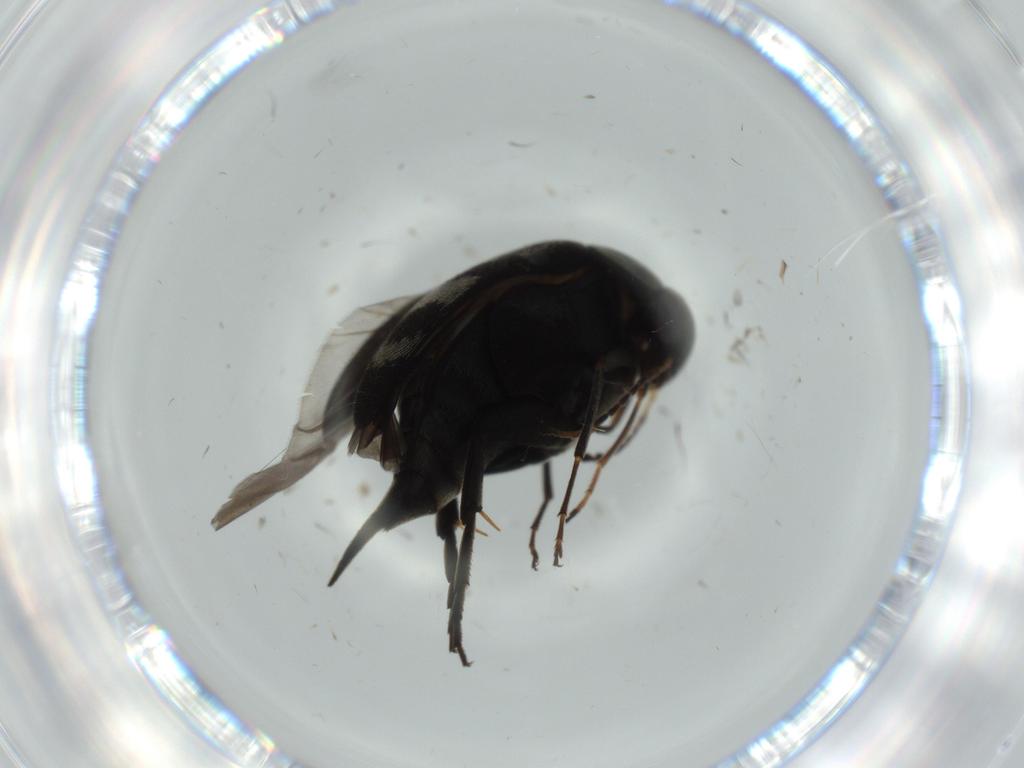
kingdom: Animalia
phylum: Arthropoda
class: Insecta
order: Coleoptera
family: Curculionidae
